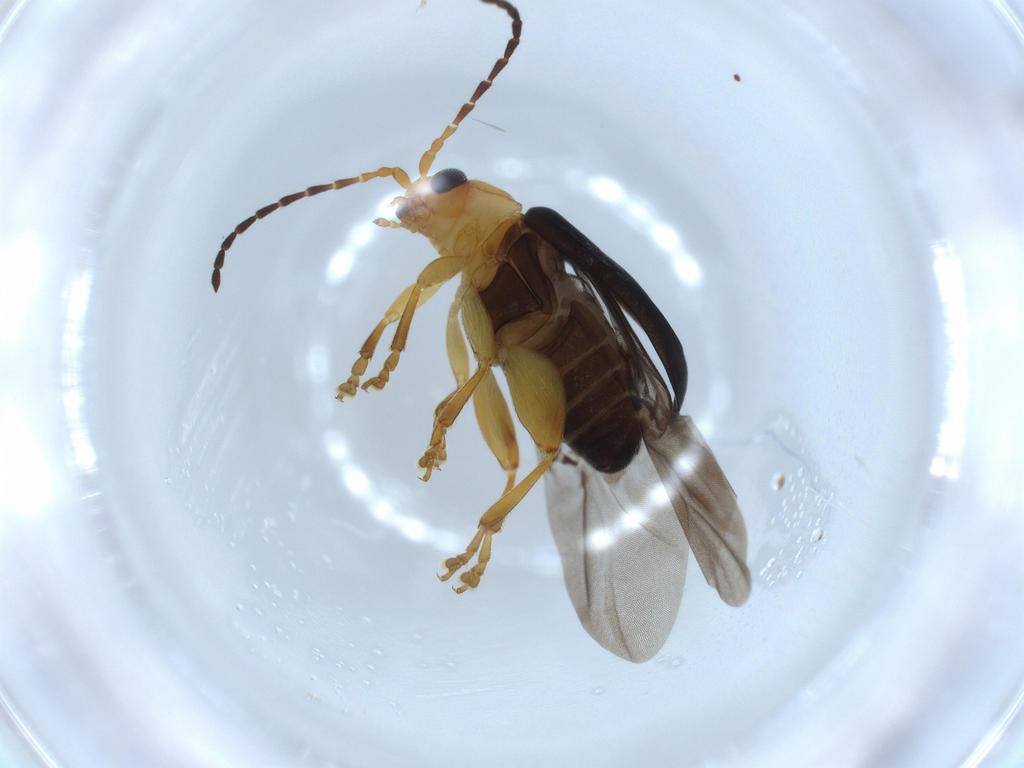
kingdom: Animalia
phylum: Arthropoda
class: Insecta
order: Coleoptera
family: Chrysomelidae
